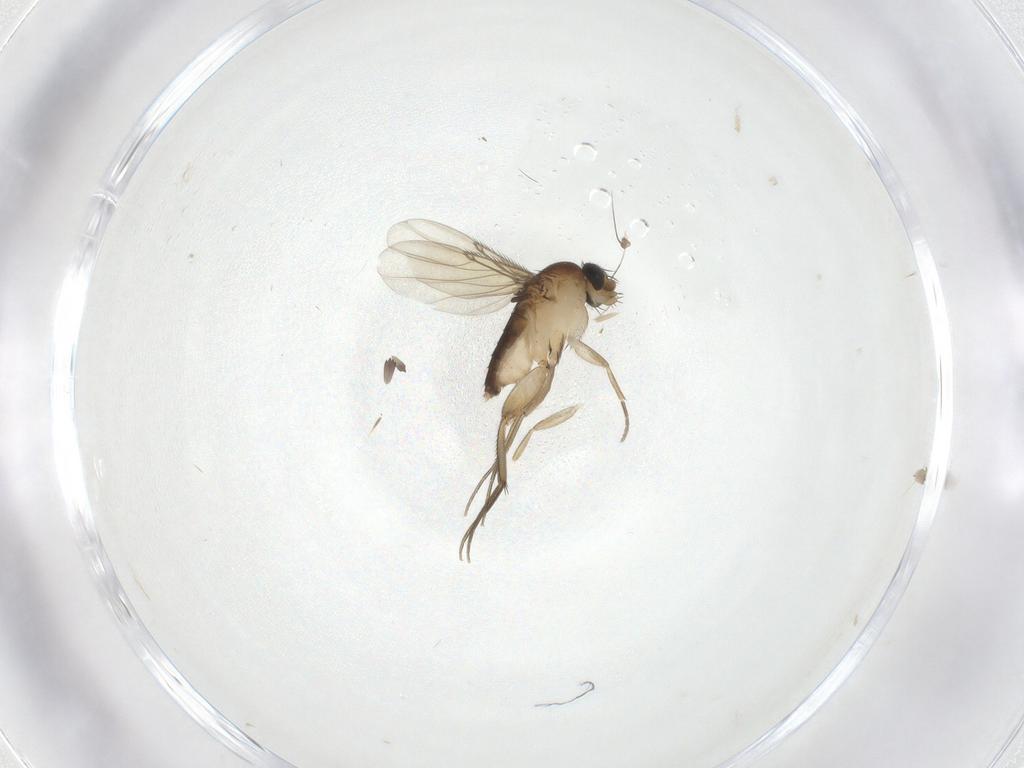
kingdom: Animalia
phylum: Arthropoda
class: Insecta
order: Diptera
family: Phoridae
